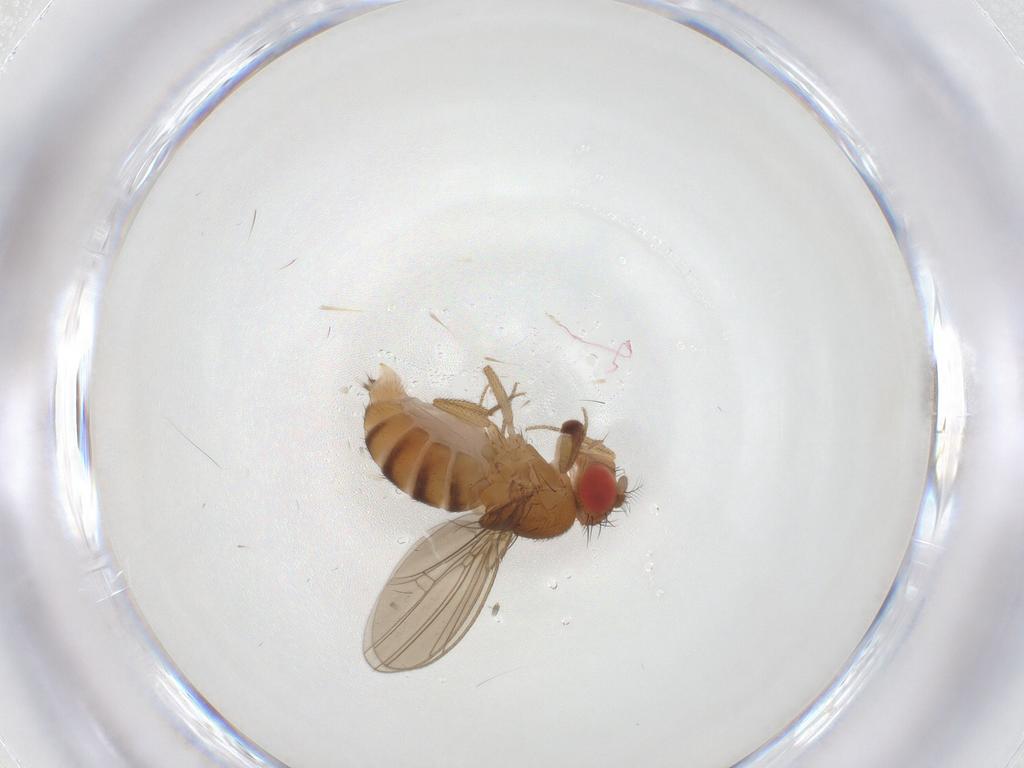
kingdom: Animalia
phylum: Arthropoda
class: Insecta
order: Diptera
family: Drosophilidae
